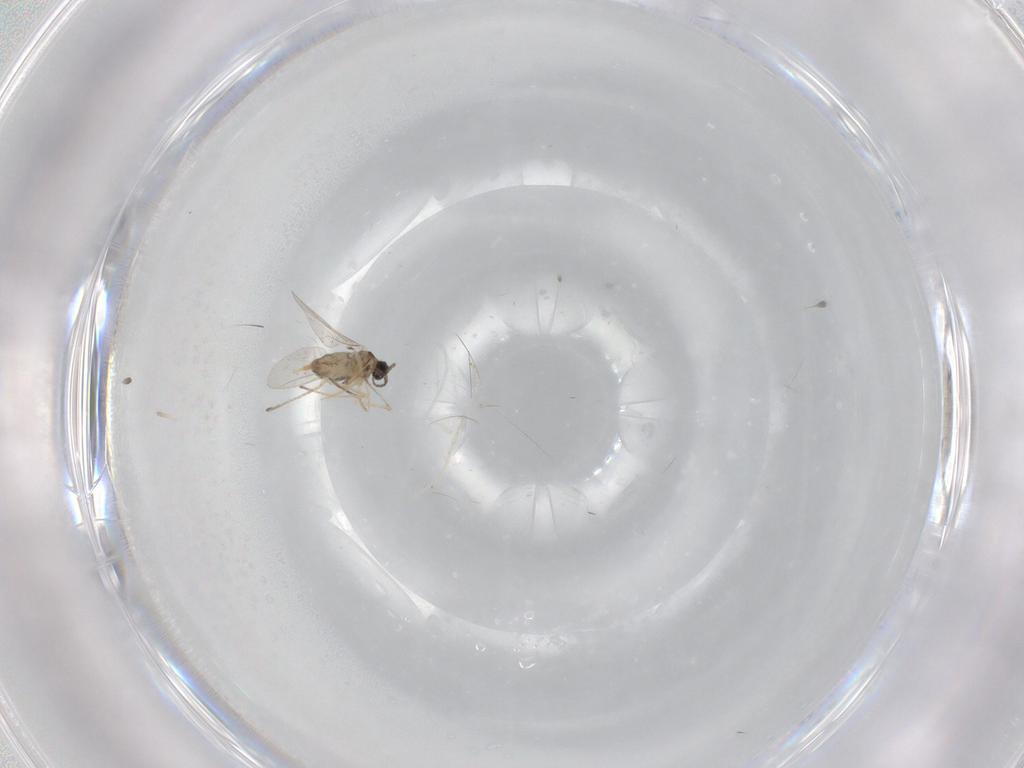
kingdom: Animalia
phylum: Arthropoda
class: Insecta
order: Diptera
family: Cecidomyiidae
